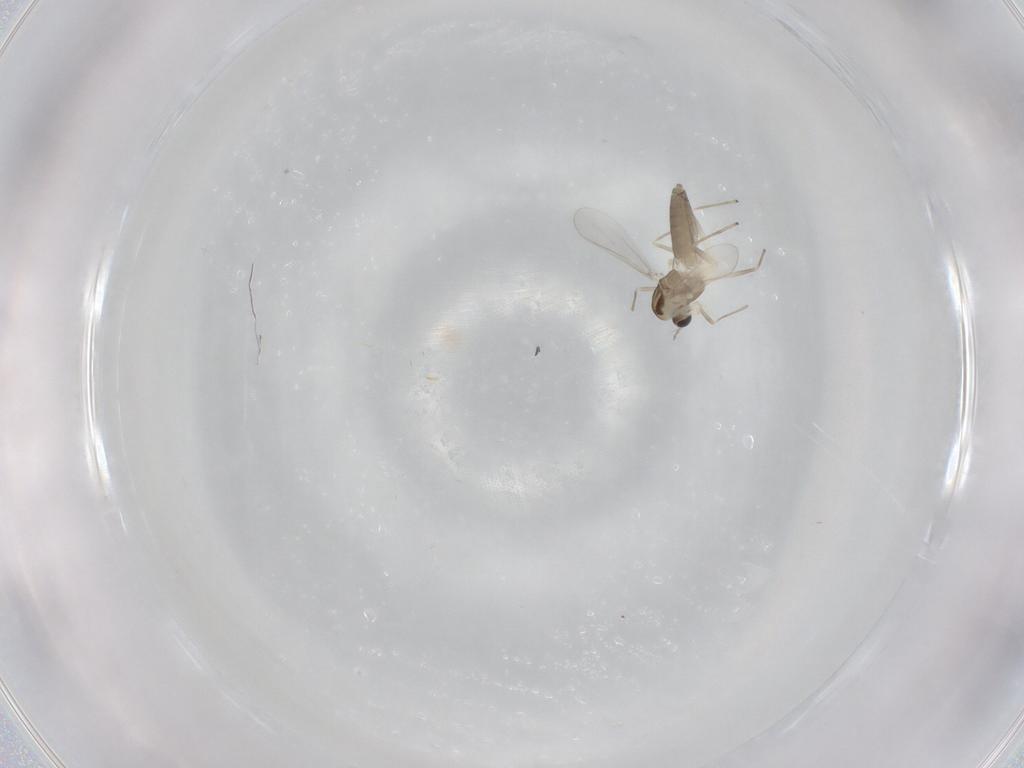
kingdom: Animalia
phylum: Arthropoda
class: Insecta
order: Diptera
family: Chironomidae
